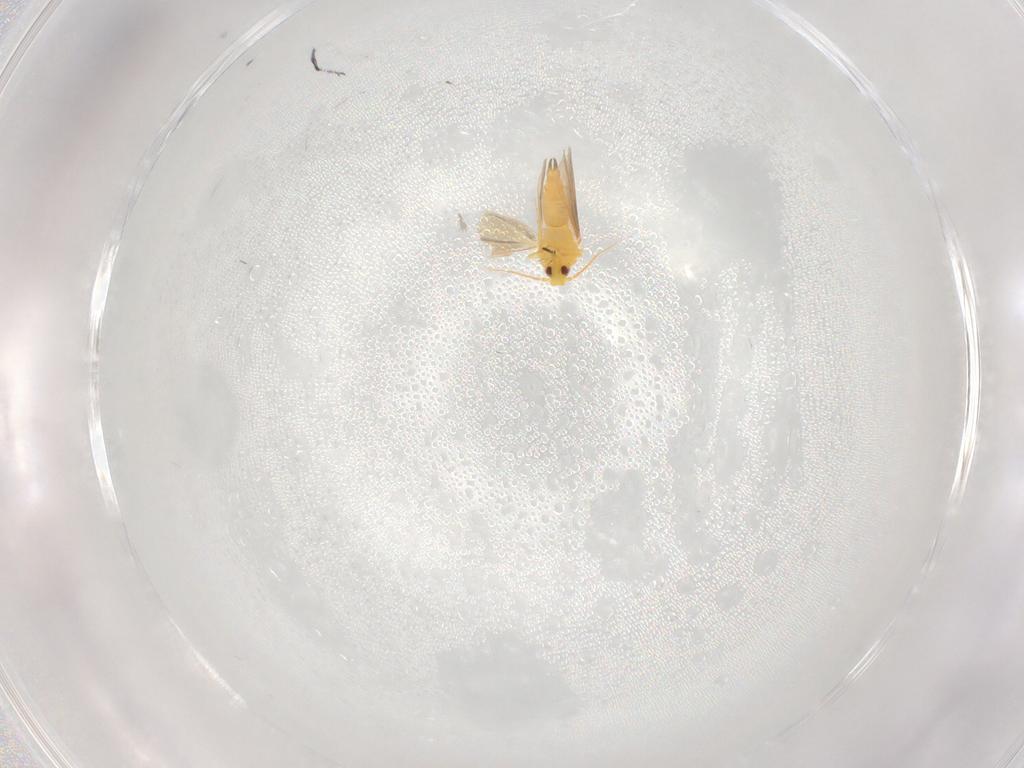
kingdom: Animalia
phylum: Arthropoda
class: Insecta
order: Hemiptera
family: Aleyrodidae
